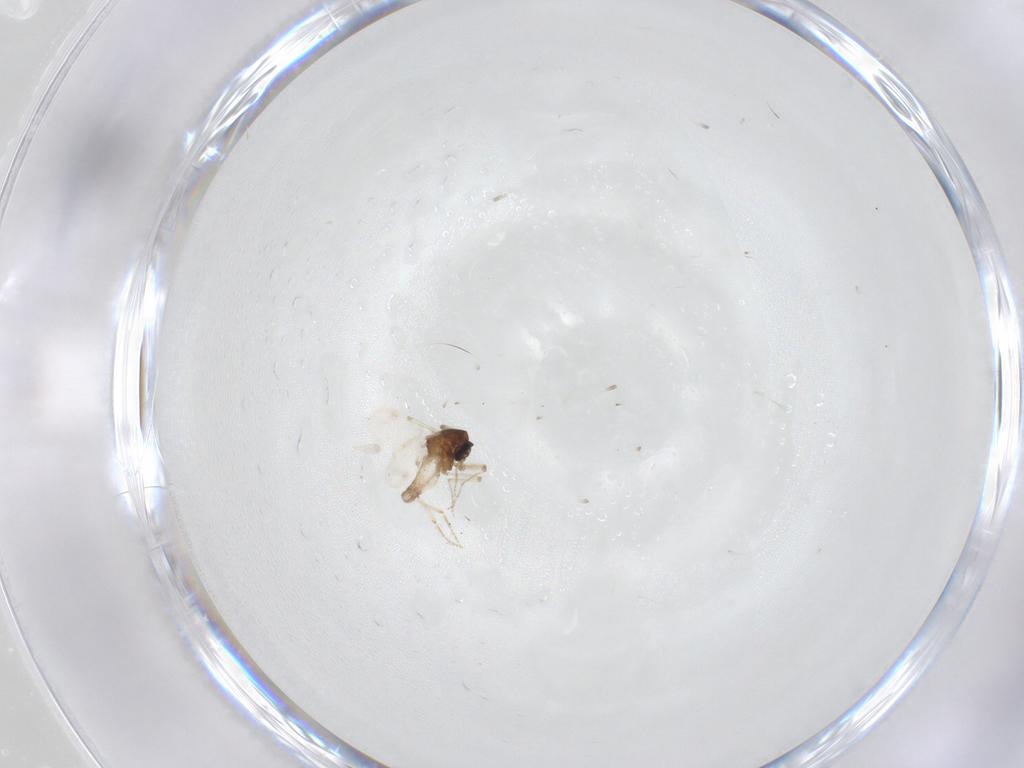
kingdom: Animalia
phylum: Arthropoda
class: Insecta
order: Diptera
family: Ceratopogonidae
